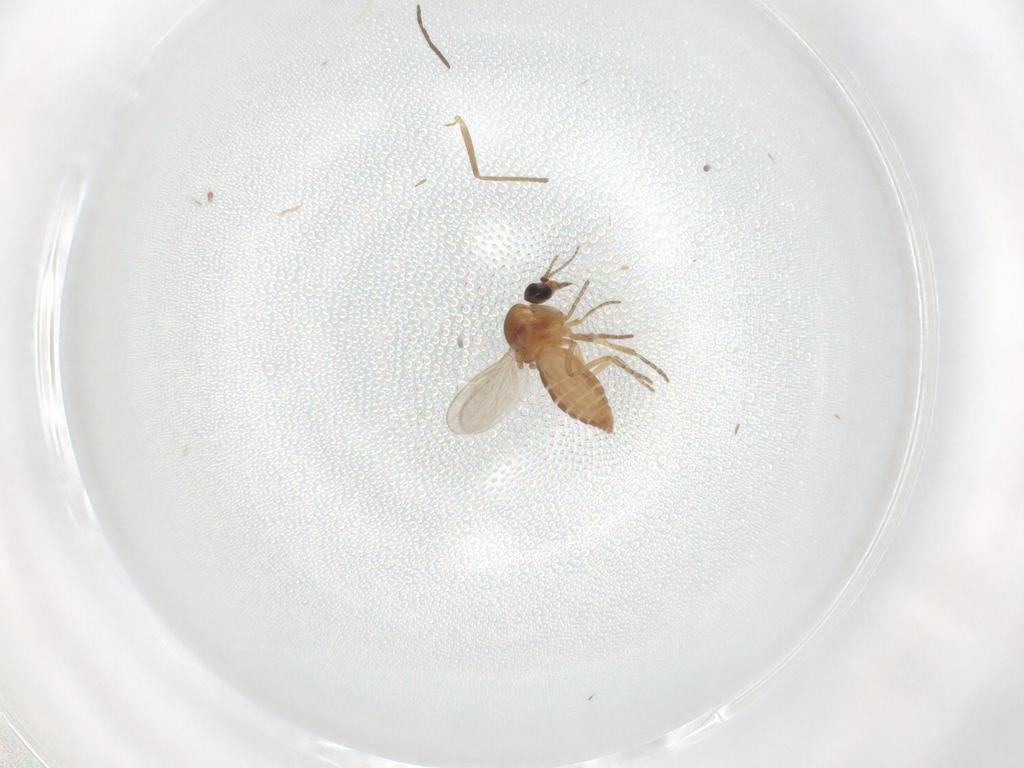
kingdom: Animalia
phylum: Arthropoda
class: Insecta
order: Diptera
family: Chironomidae
